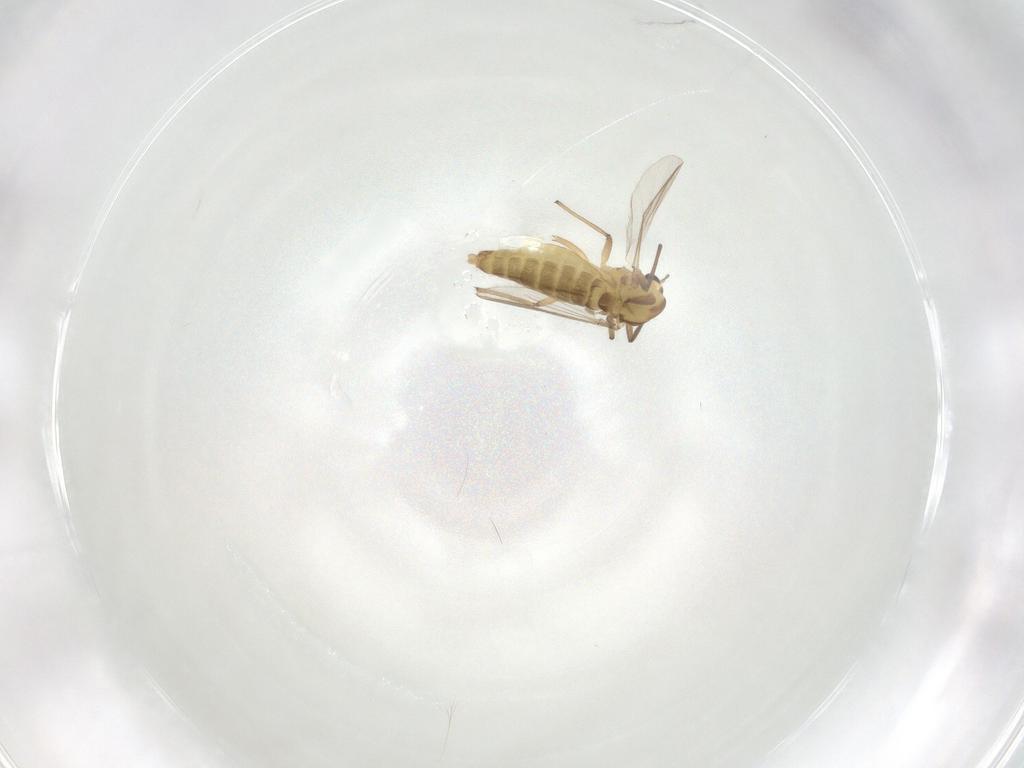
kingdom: Animalia
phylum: Arthropoda
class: Insecta
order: Diptera
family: Chironomidae
